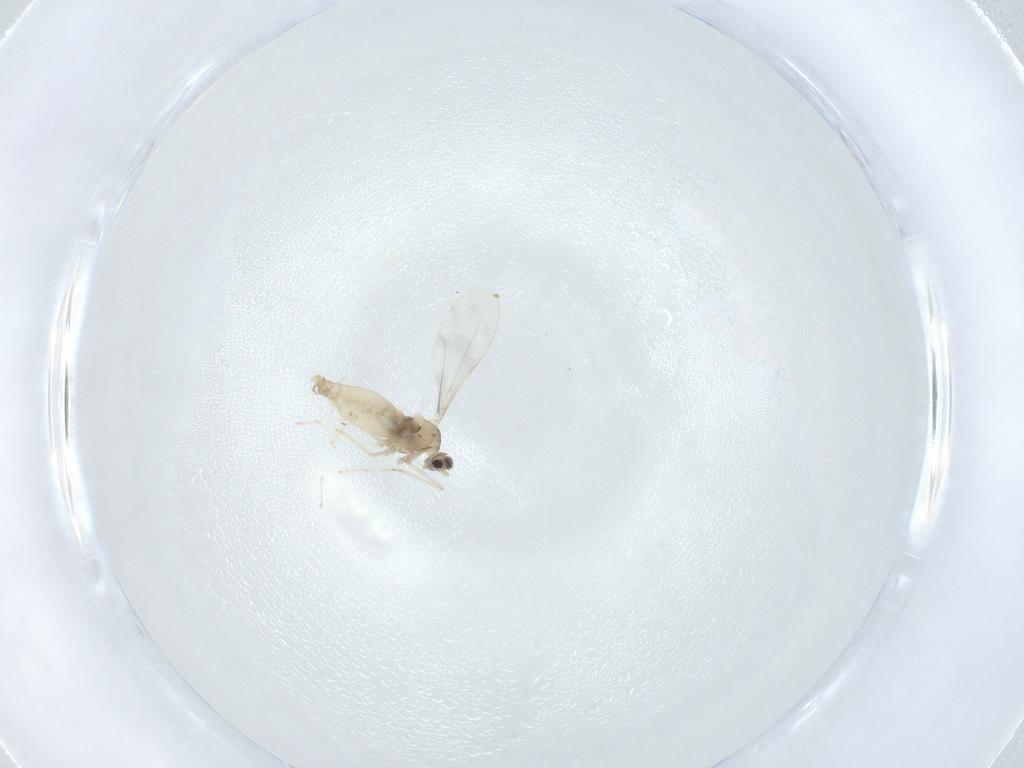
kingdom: Animalia
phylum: Arthropoda
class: Insecta
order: Diptera
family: Cecidomyiidae
